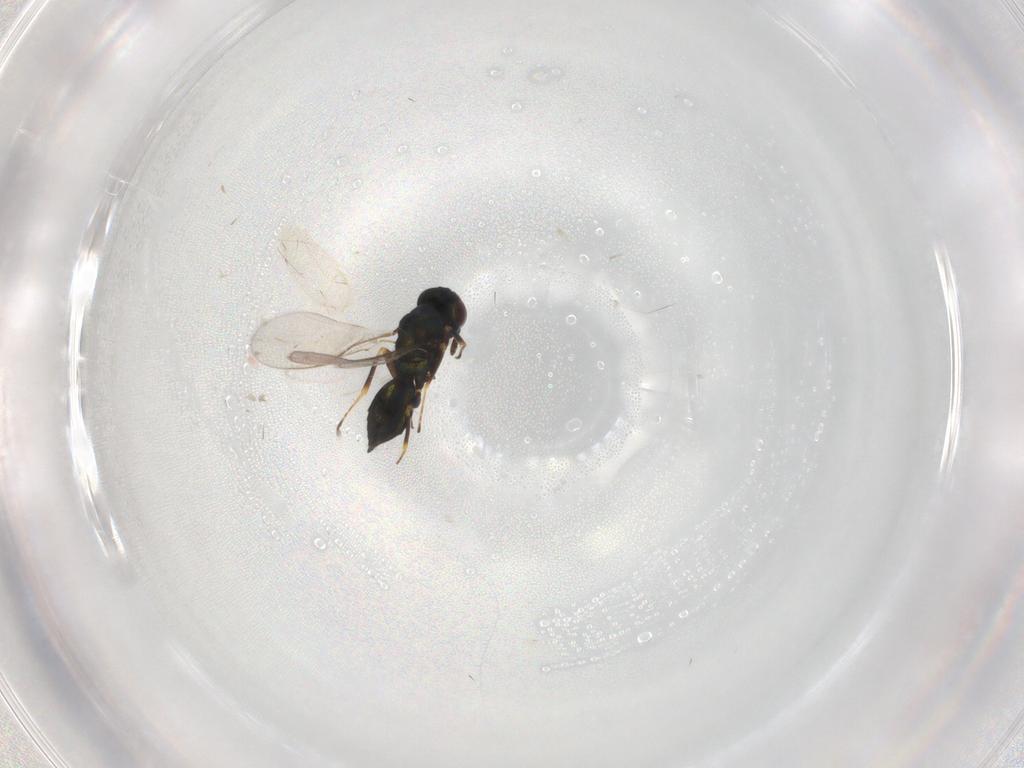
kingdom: Animalia
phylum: Arthropoda
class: Insecta
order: Hymenoptera
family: Pteromalidae
